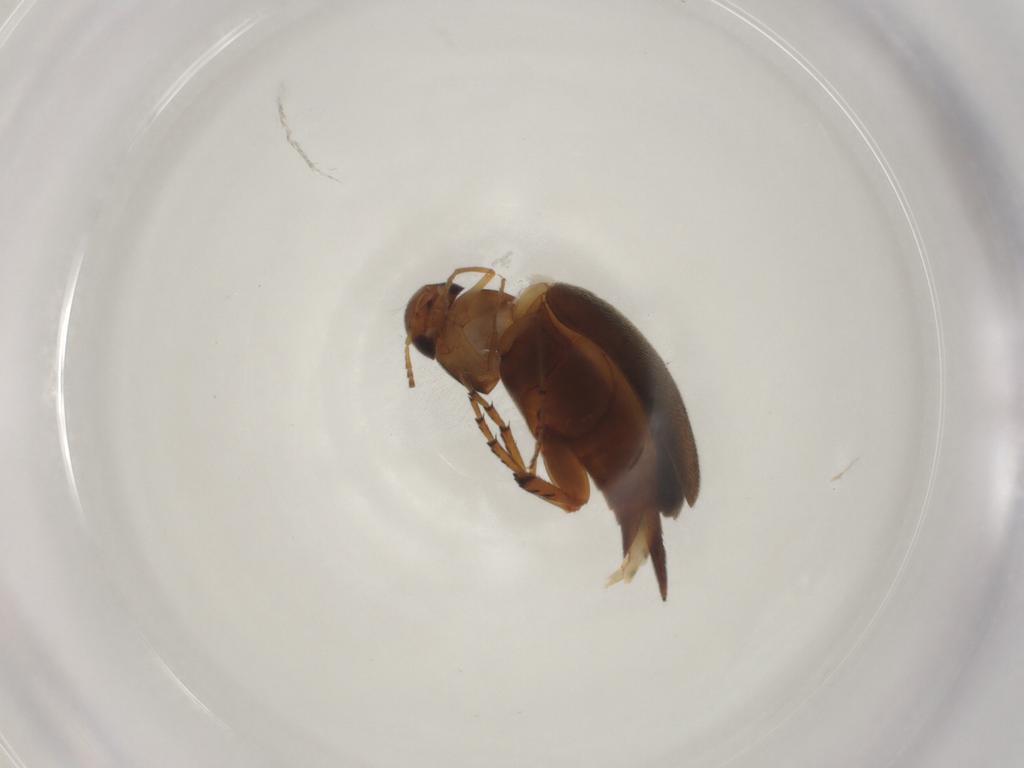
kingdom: Animalia
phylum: Arthropoda
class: Insecta
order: Coleoptera
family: Mordellidae
